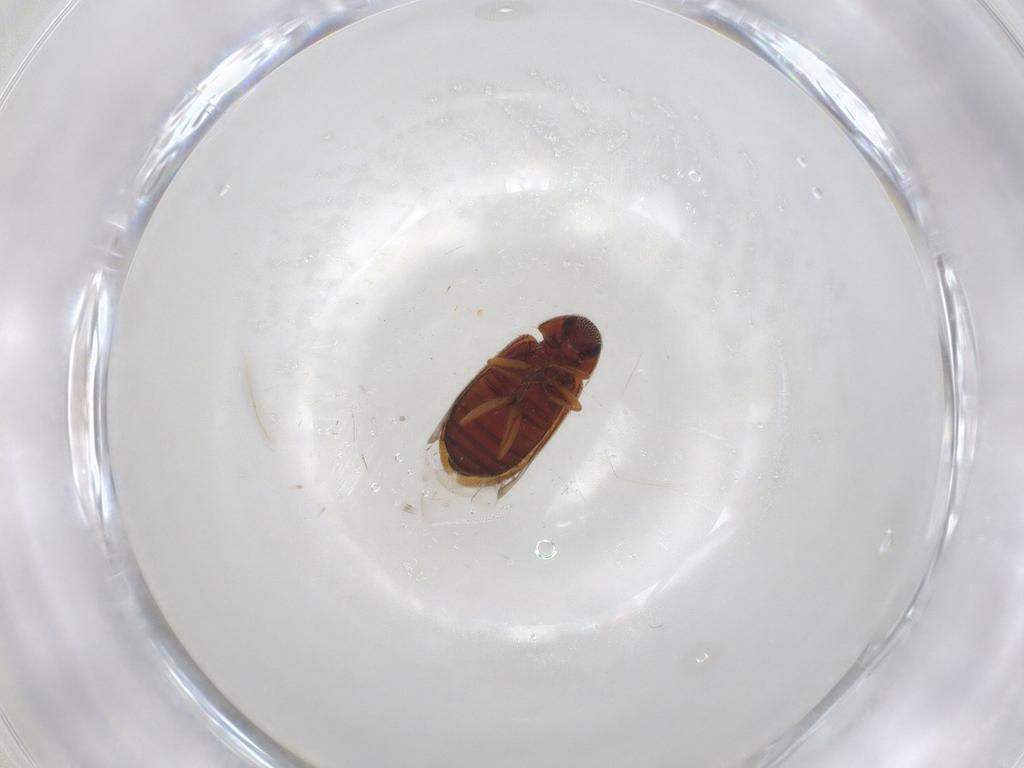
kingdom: Animalia
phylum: Arthropoda
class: Insecta
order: Coleoptera
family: Rhadalidae
